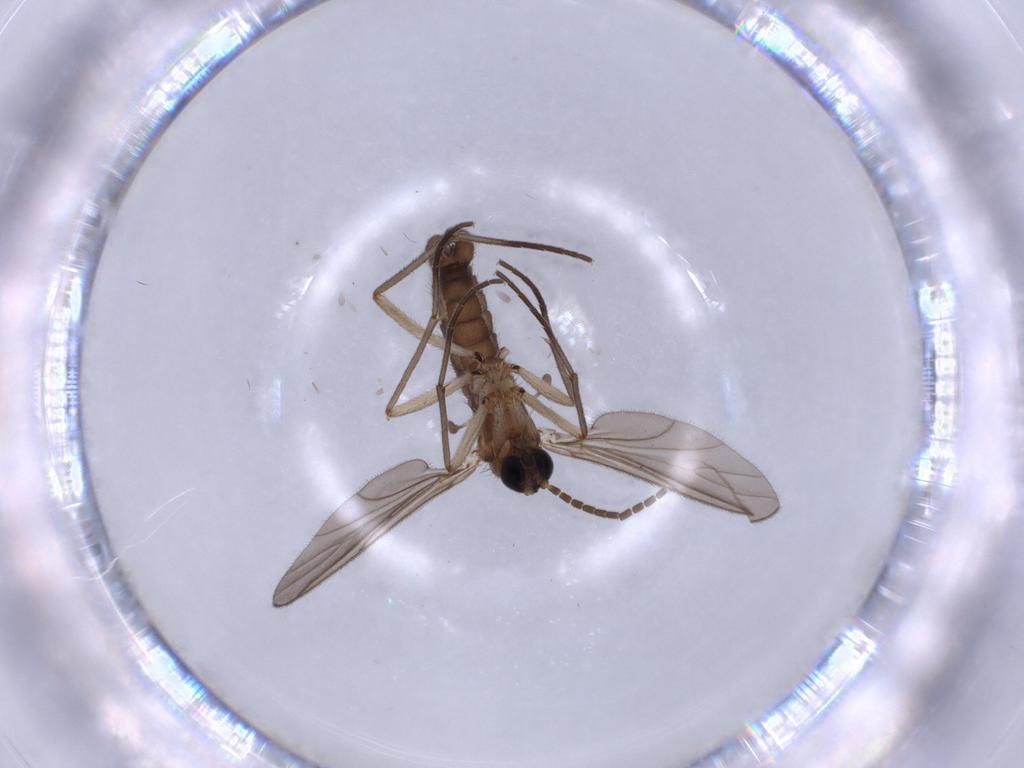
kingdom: Animalia
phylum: Arthropoda
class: Insecta
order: Diptera
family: Sciaridae
